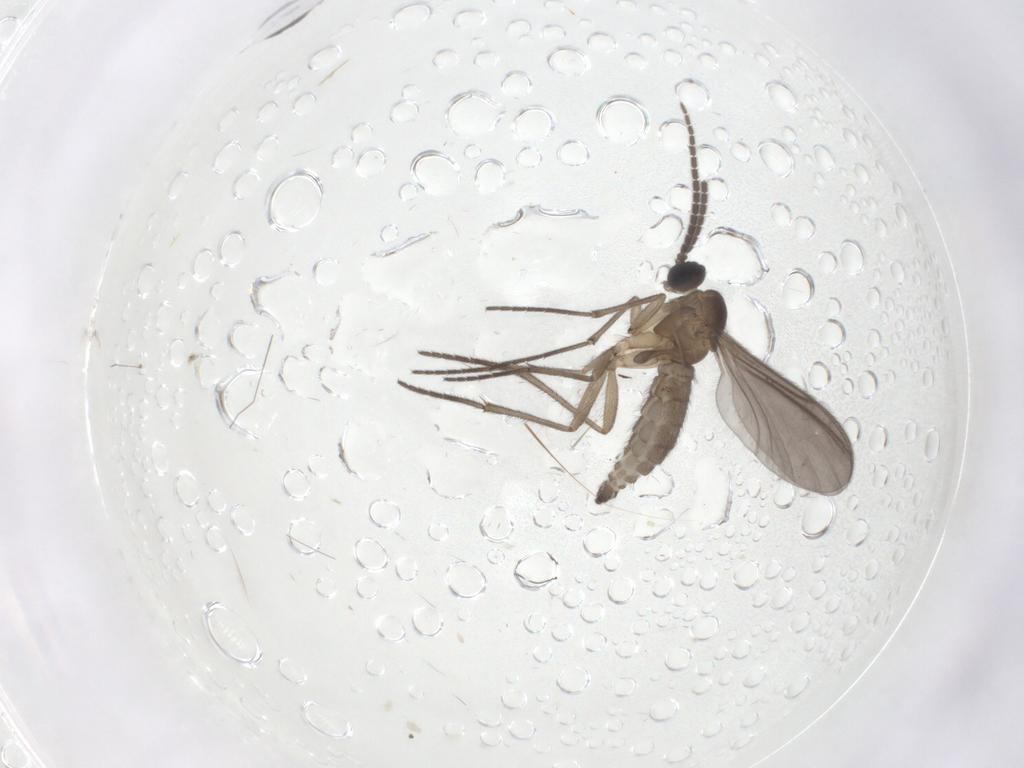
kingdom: Animalia
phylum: Arthropoda
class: Insecta
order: Diptera
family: Sciaridae
